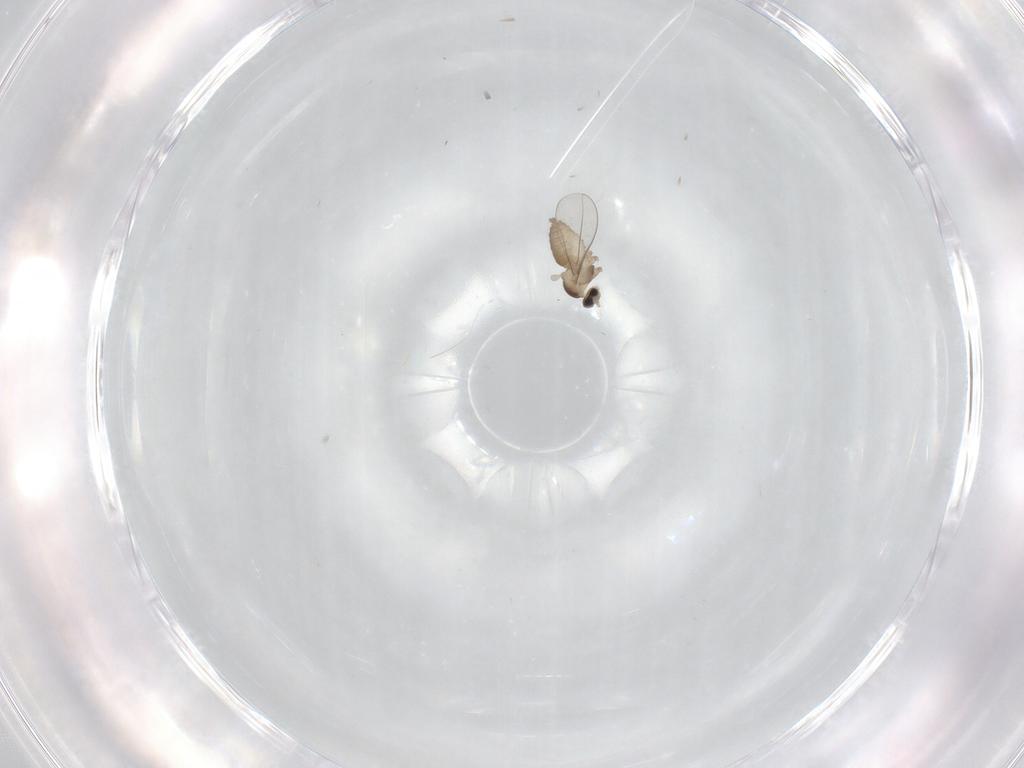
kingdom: Animalia
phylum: Arthropoda
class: Insecta
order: Diptera
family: Cecidomyiidae
